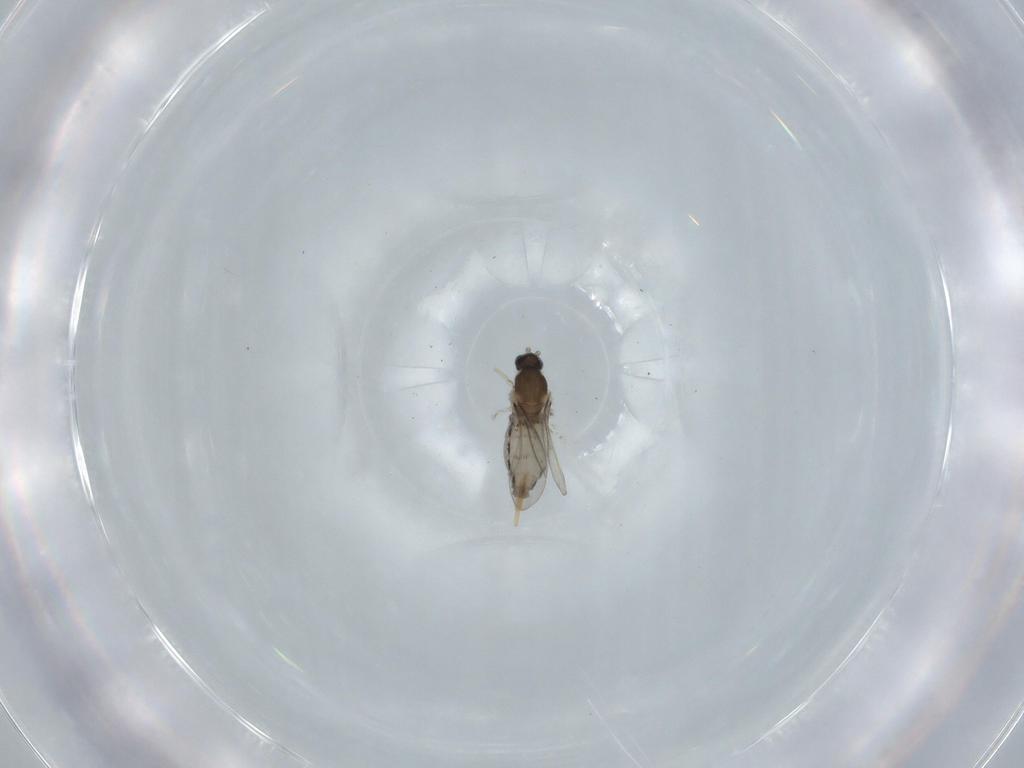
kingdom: Animalia
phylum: Arthropoda
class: Insecta
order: Diptera
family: Cecidomyiidae
